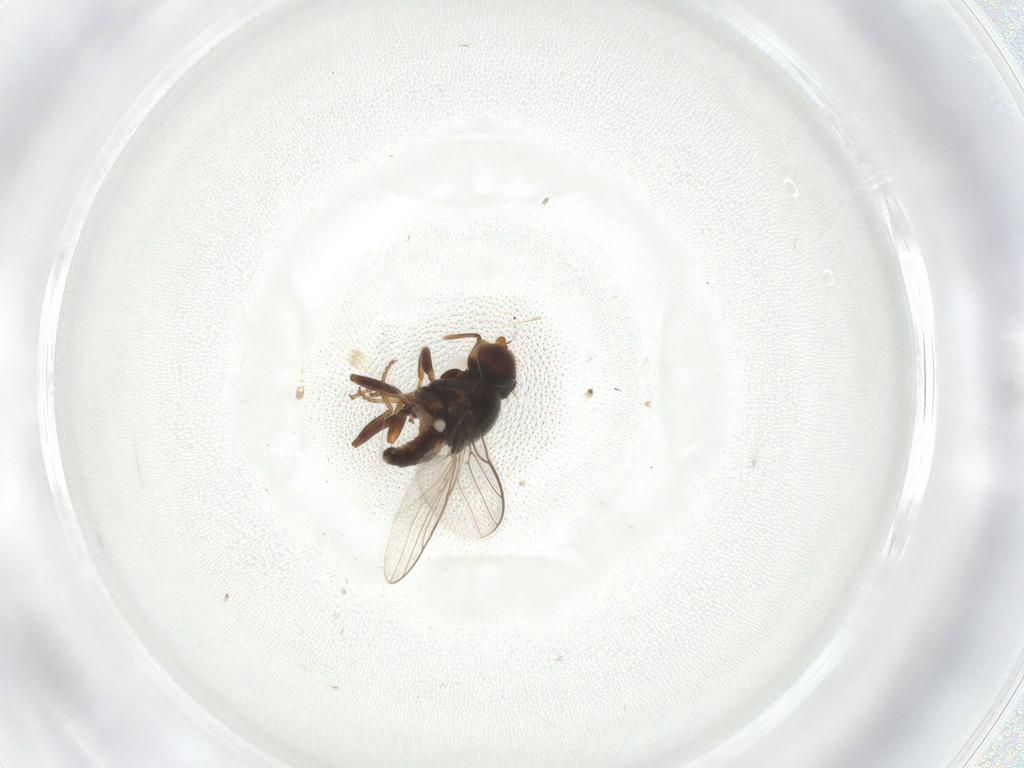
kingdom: Animalia
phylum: Arthropoda
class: Insecta
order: Diptera
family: Chloropidae
